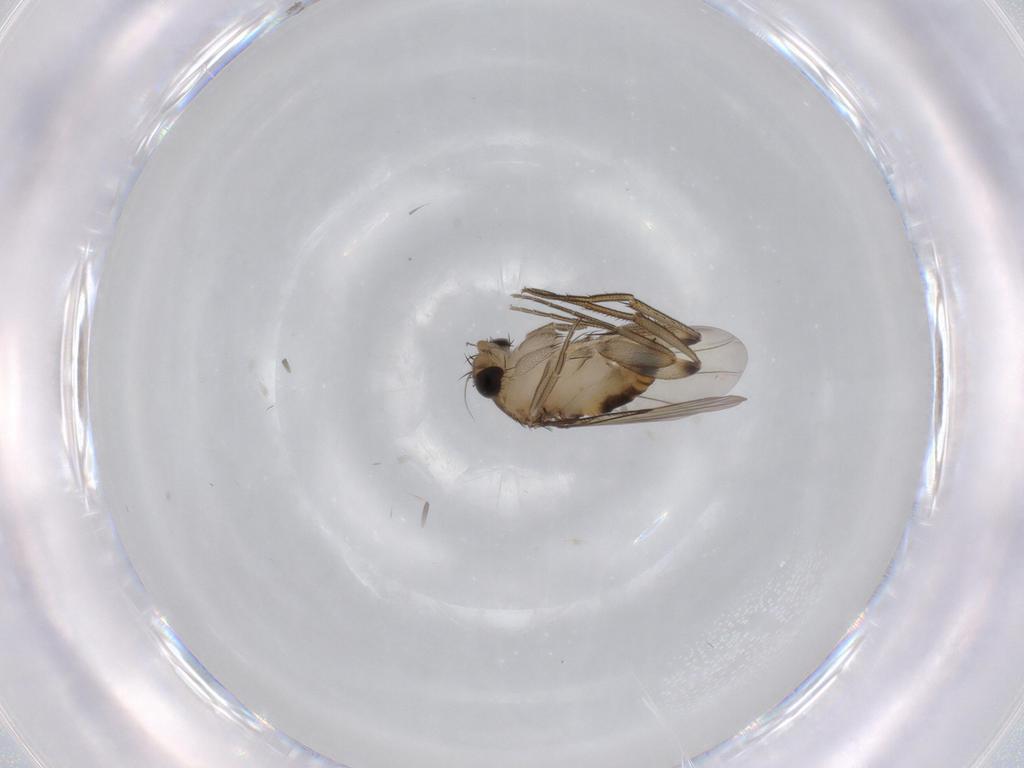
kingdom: Animalia
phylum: Arthropoda
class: Insecta
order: Diptera
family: Phoridae
